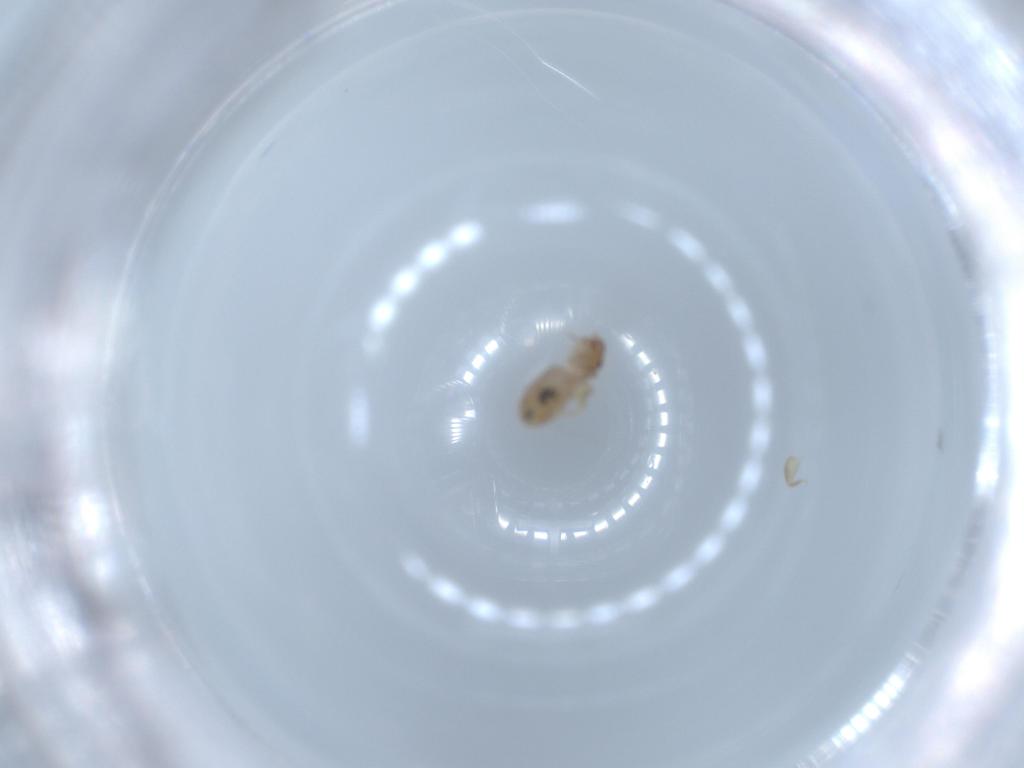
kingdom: Animalia
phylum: Arthropoda
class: Insecta
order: Psocodea
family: Liposcelididae
